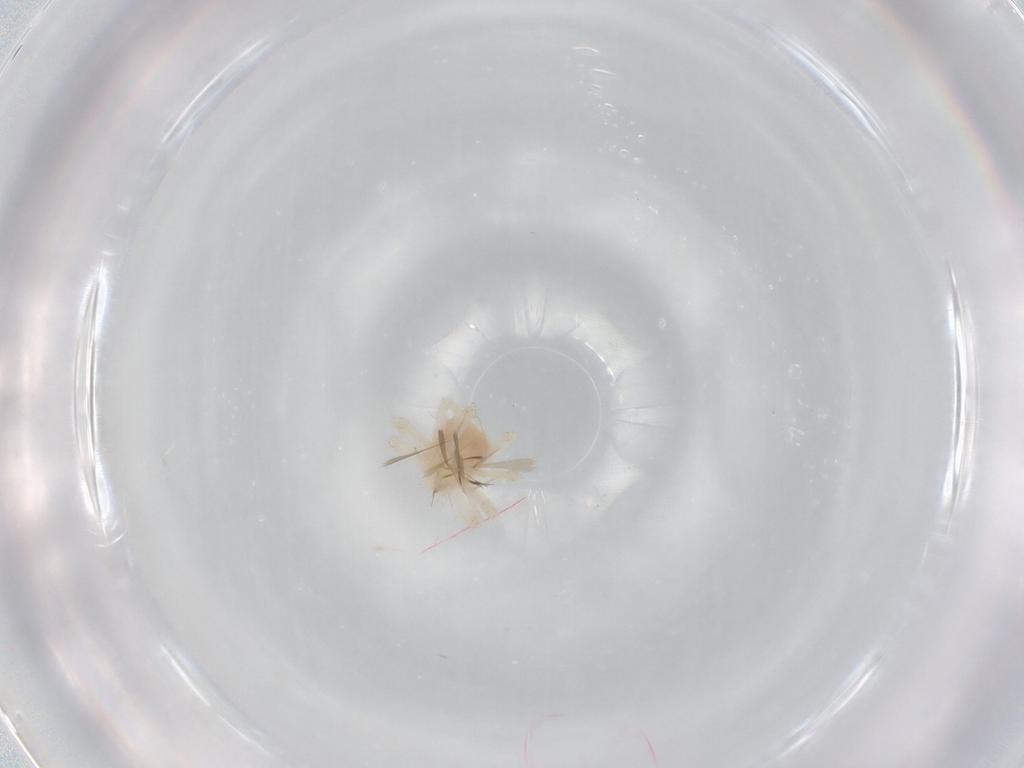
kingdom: Animalia
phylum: Arthropoda
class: Arachnida
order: Trombidiformes
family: Anystidae
